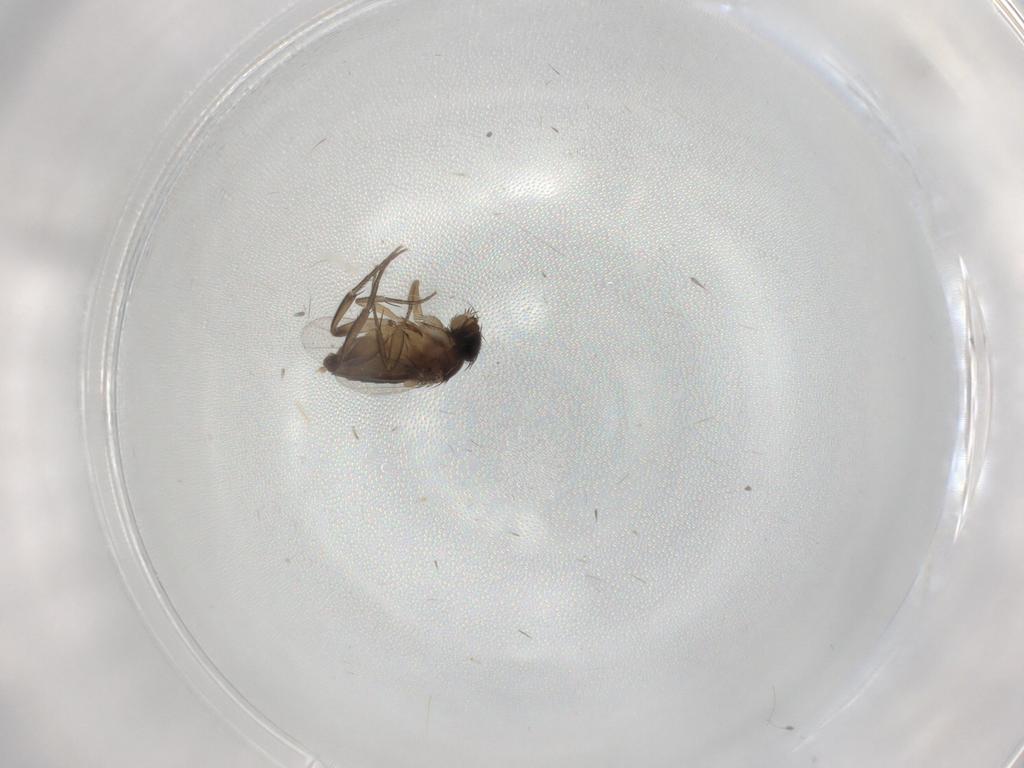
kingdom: Animalia
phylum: Arthropoda
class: Insecta
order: Diptera
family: Phoridae
